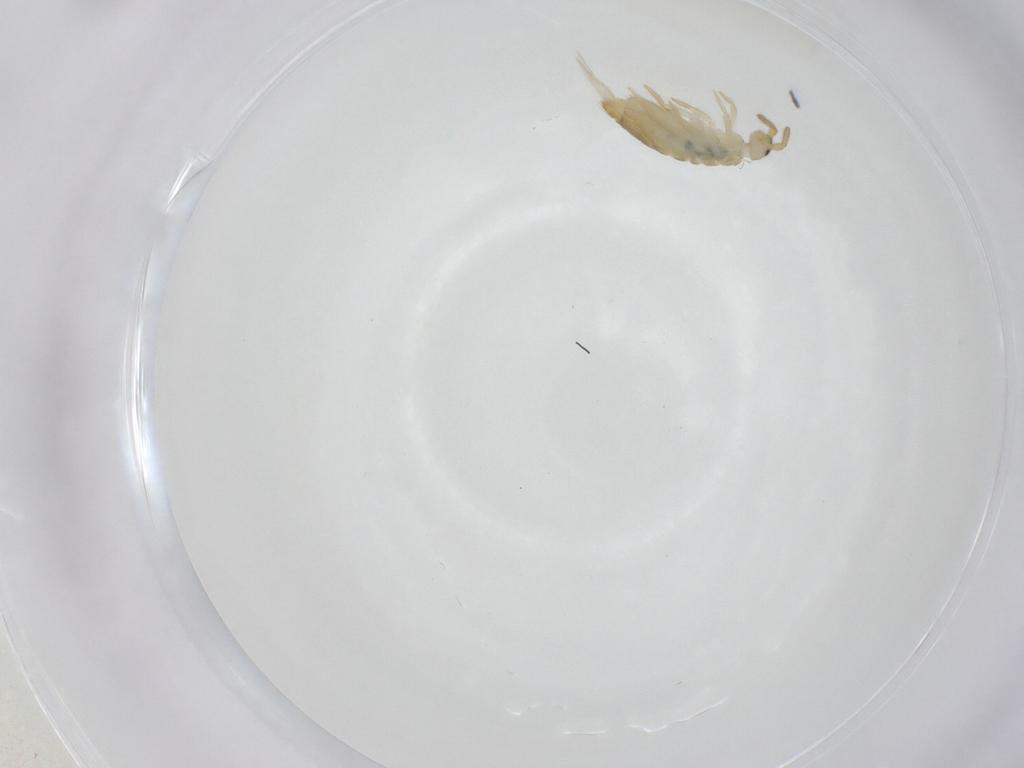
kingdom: Animalia
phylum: Arthropoda
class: Collembola
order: Entomobryomorpha
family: Entomobryidae
